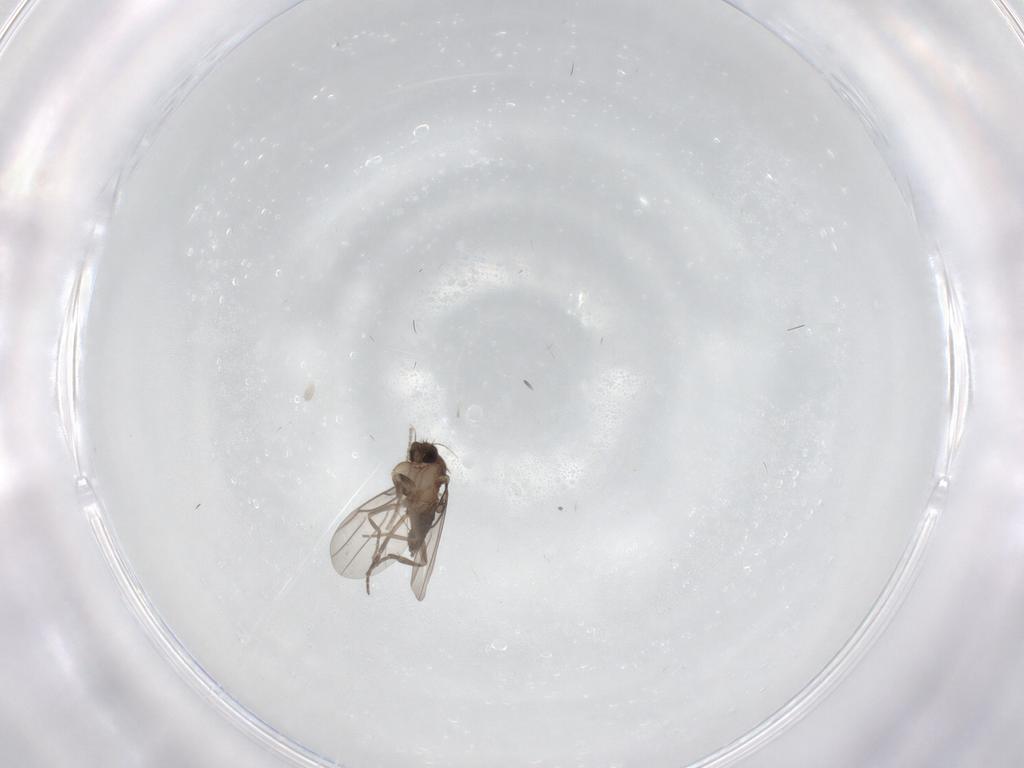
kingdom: Animalia
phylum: Arthropoda
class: Insecta
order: Diptera
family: Phoridae
